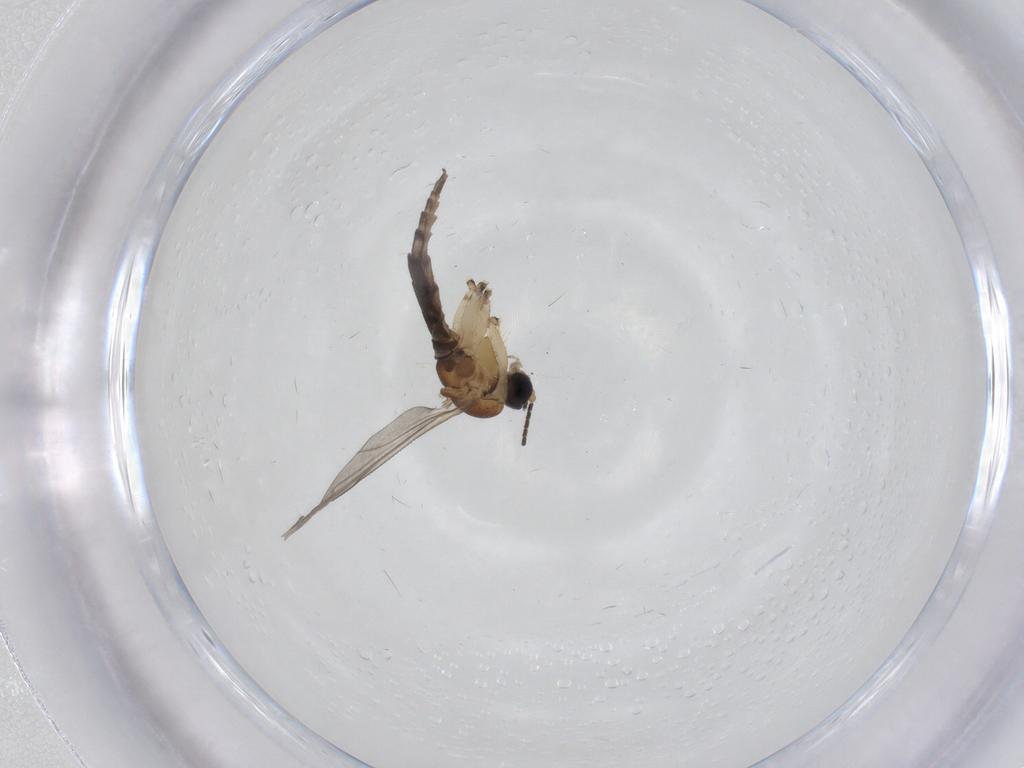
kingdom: Animalia
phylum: Arthropoda
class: Insecta
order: Diptera
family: Sciaridae
